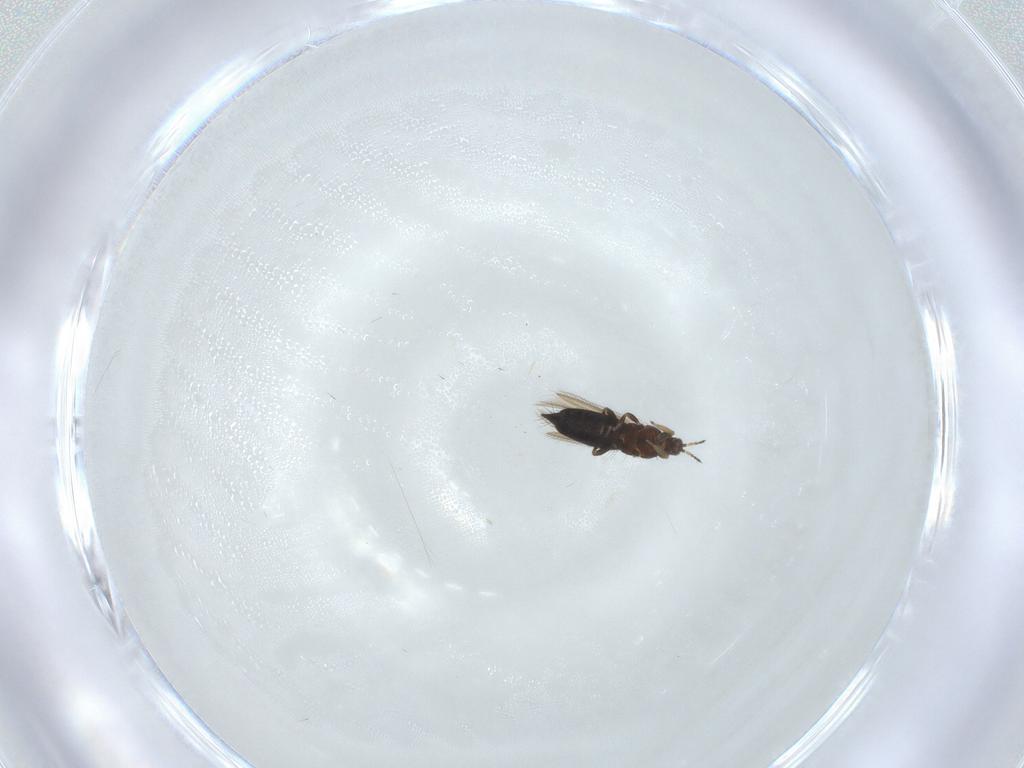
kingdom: Animalia
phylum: Arthropoda
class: Insecta
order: Thysanoptera
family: Thripidae
